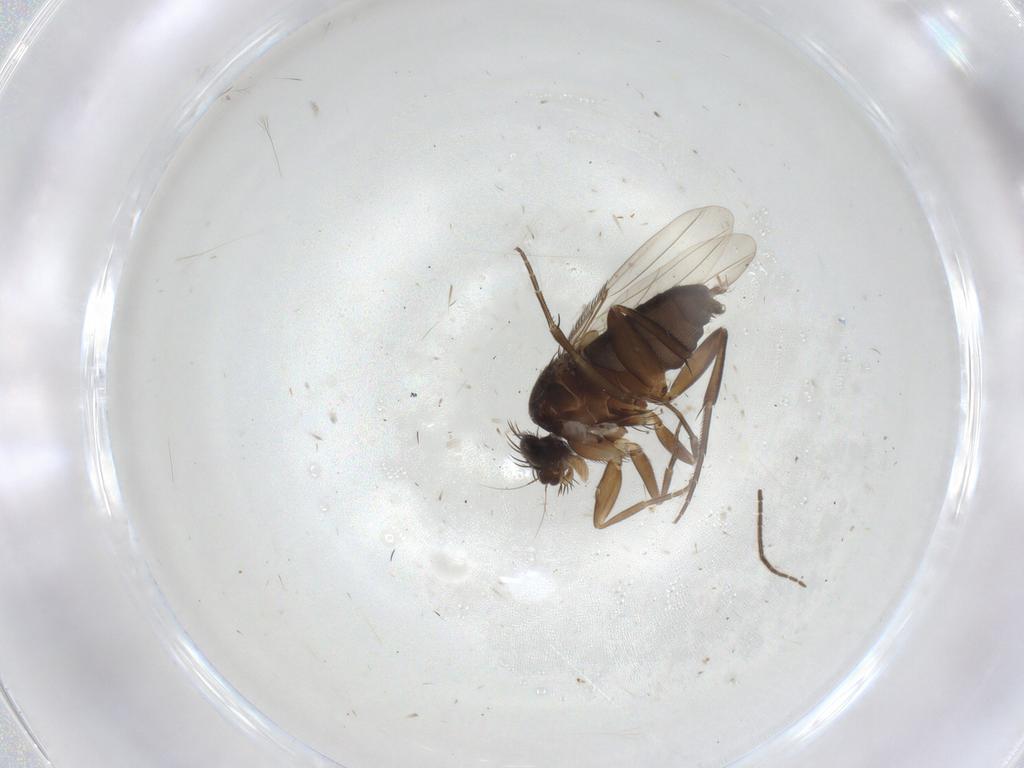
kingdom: Animalia
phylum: Arthropoda
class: Insecta
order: Diptera
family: Phoridae
